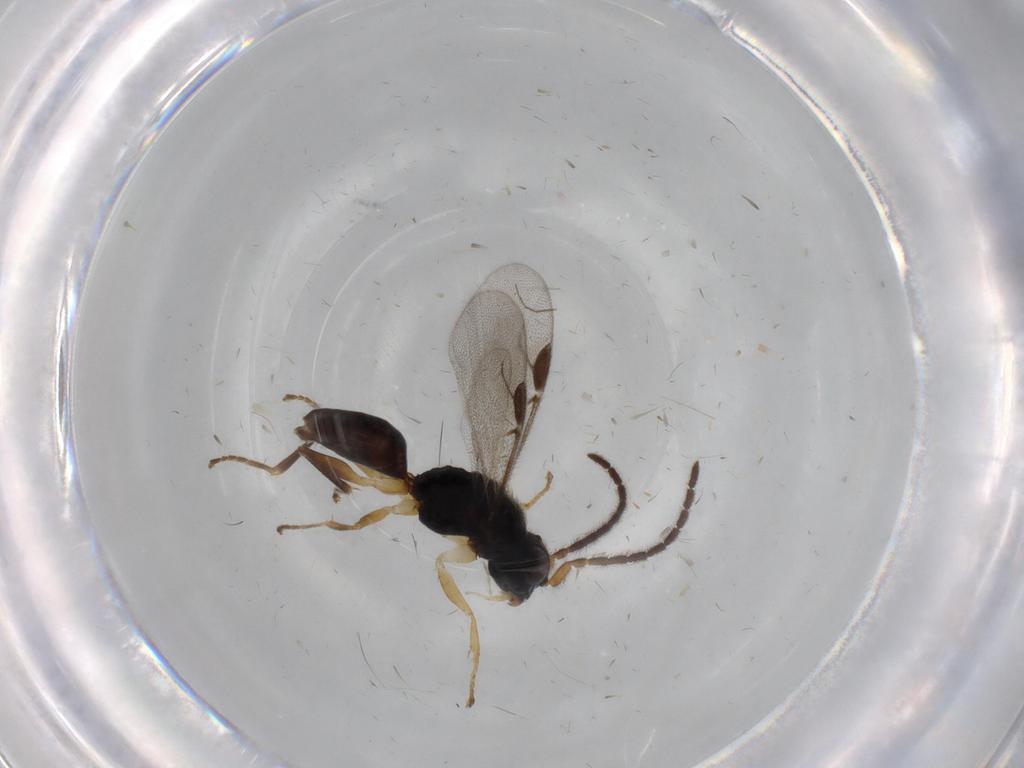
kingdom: Animalia
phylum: Arthropoda
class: Insecta
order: Hymenoptera
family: Dryinidae
